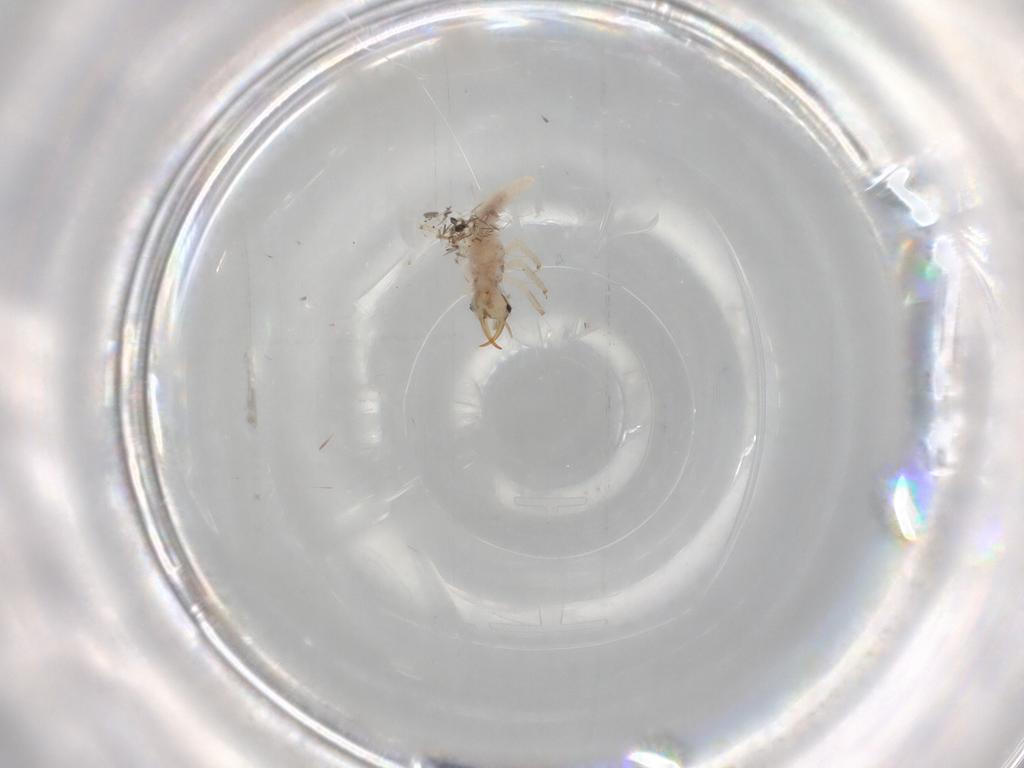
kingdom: Animalia
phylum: Arthropoda
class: Insecta
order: Neuroptera
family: Chrysopidae
